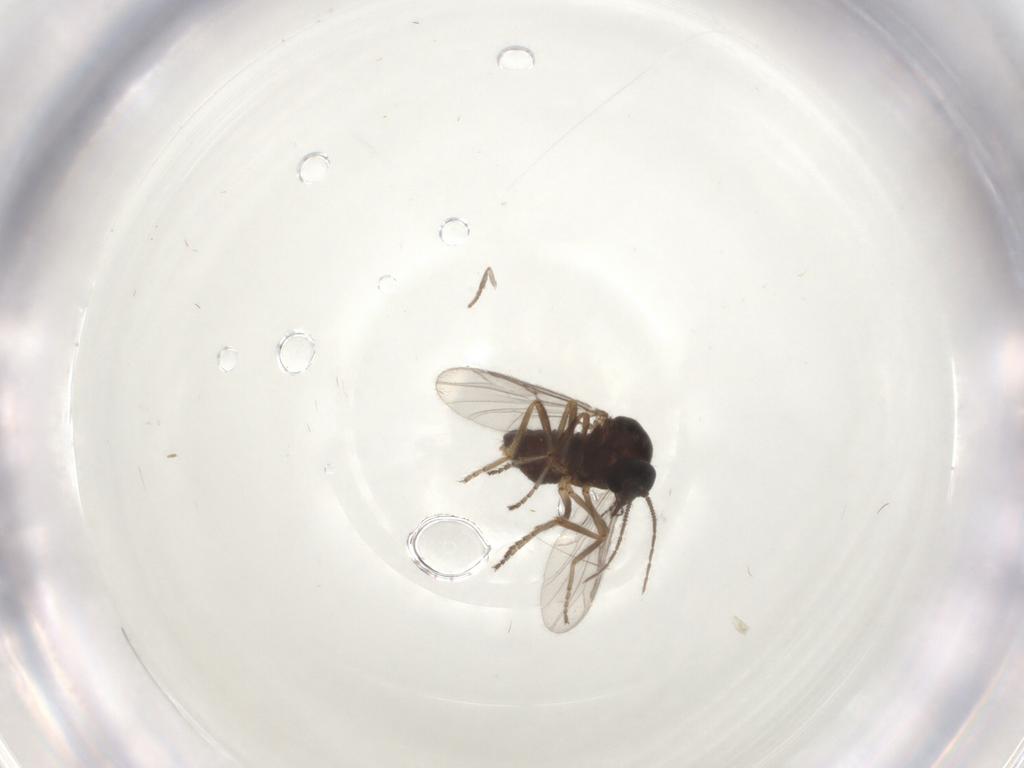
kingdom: Animalia
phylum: Arthropoda
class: Insecta
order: Diptera
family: Ceratopogonidae
